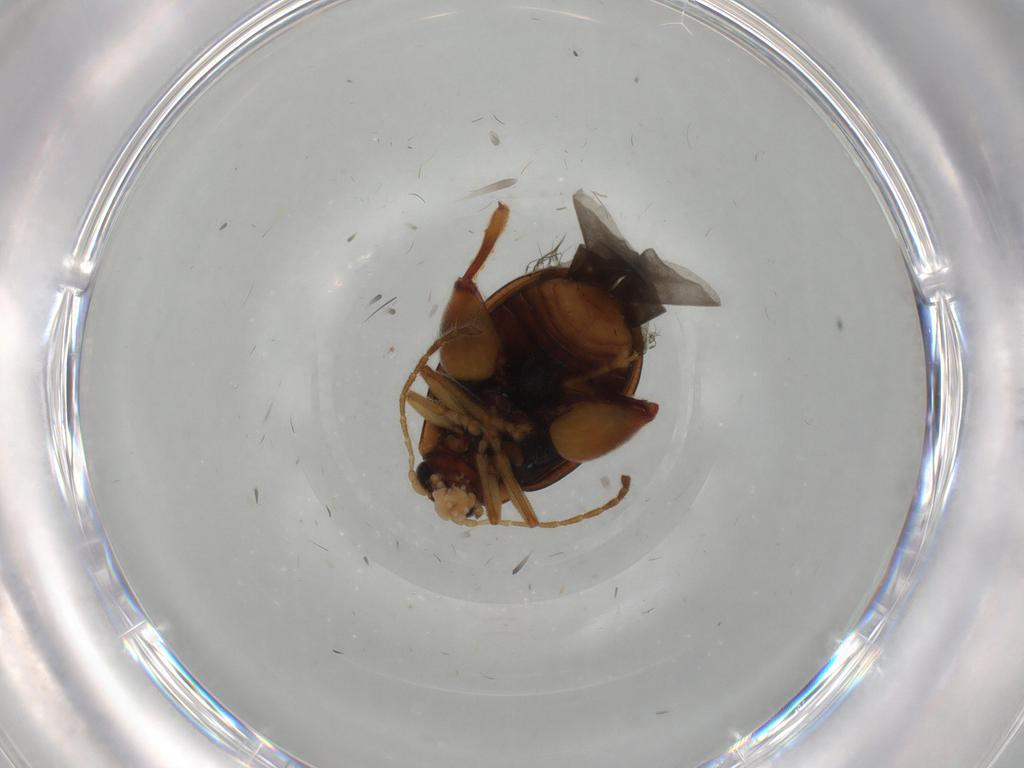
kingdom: Animalia
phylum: Arthropoda
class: Insecta
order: Coleoptera
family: Chrysomelidae
